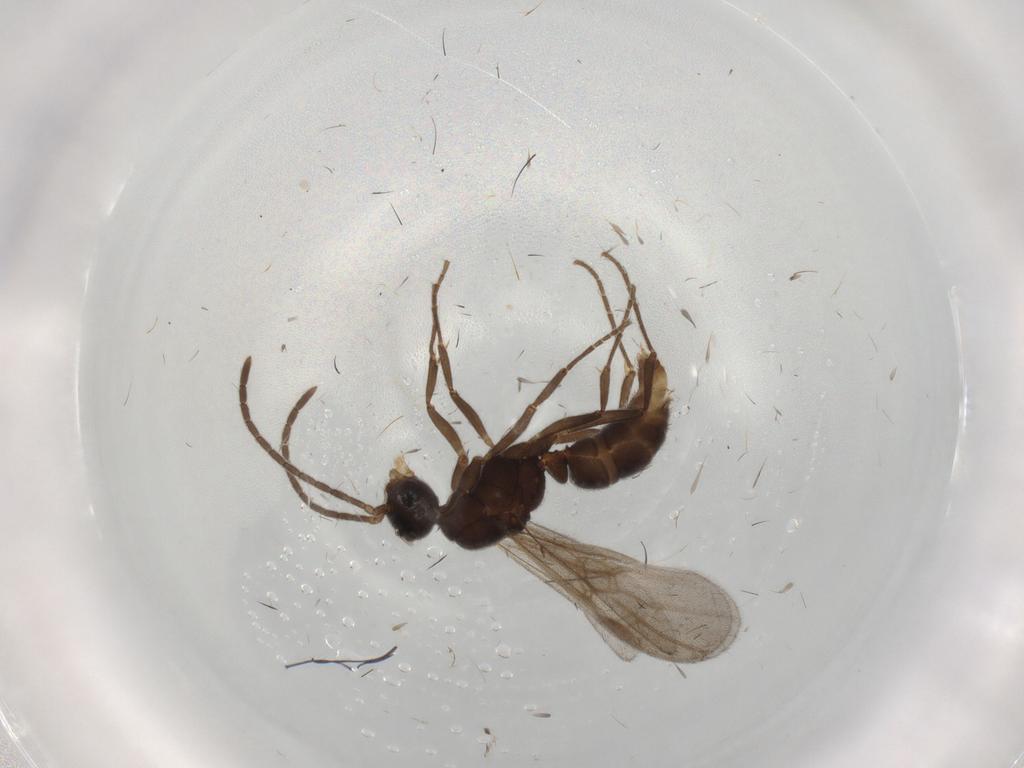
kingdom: Animalia
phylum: Arthropoda
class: Insecta
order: Hymenoptera
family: Formicidae
